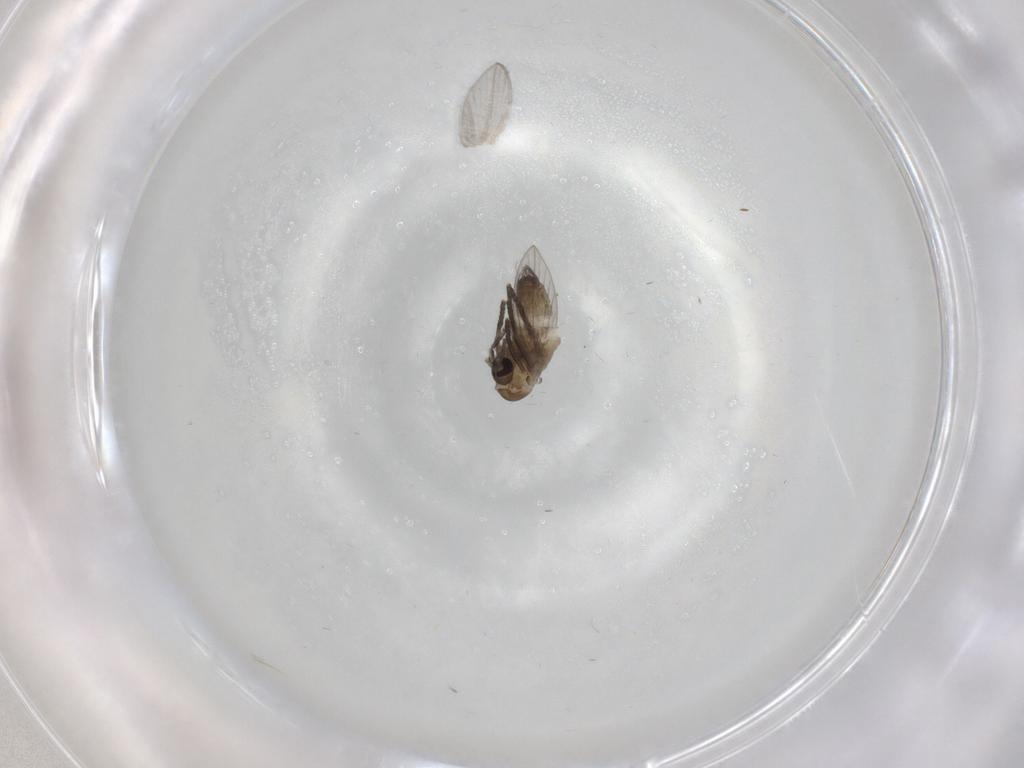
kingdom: Animalia
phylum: Arthropoda
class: Insecta
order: Diptera
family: Psychodidae
